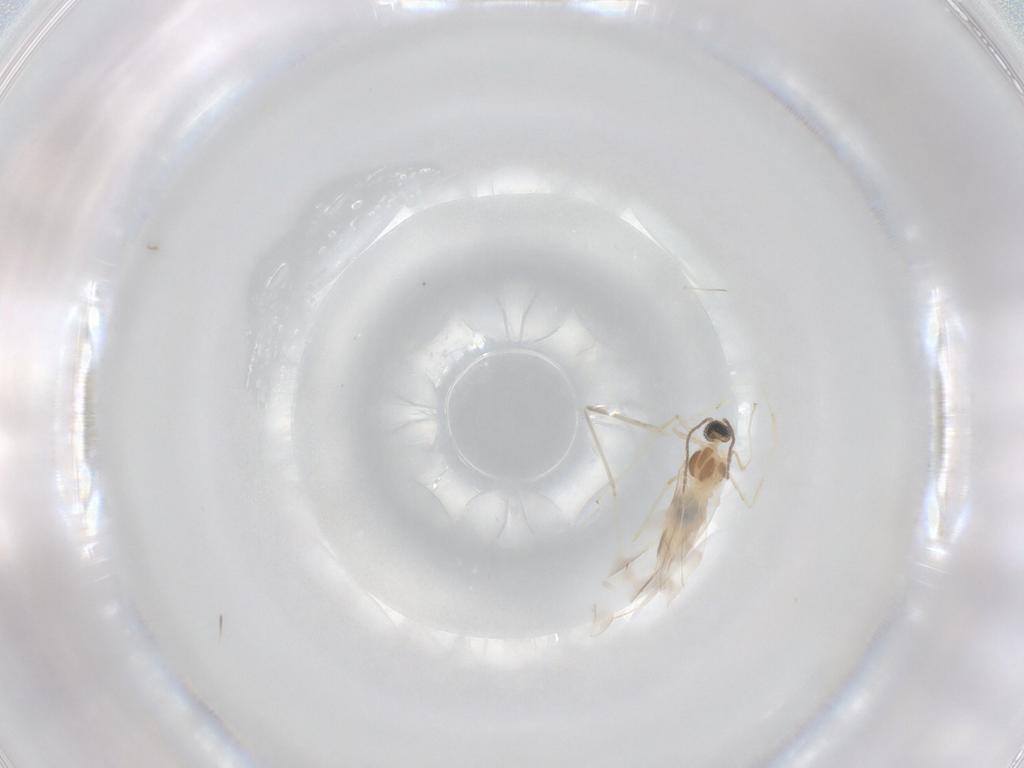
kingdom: Animalia
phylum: Arthropoda
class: Insecta
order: Diptera
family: Cecidomyiidae
